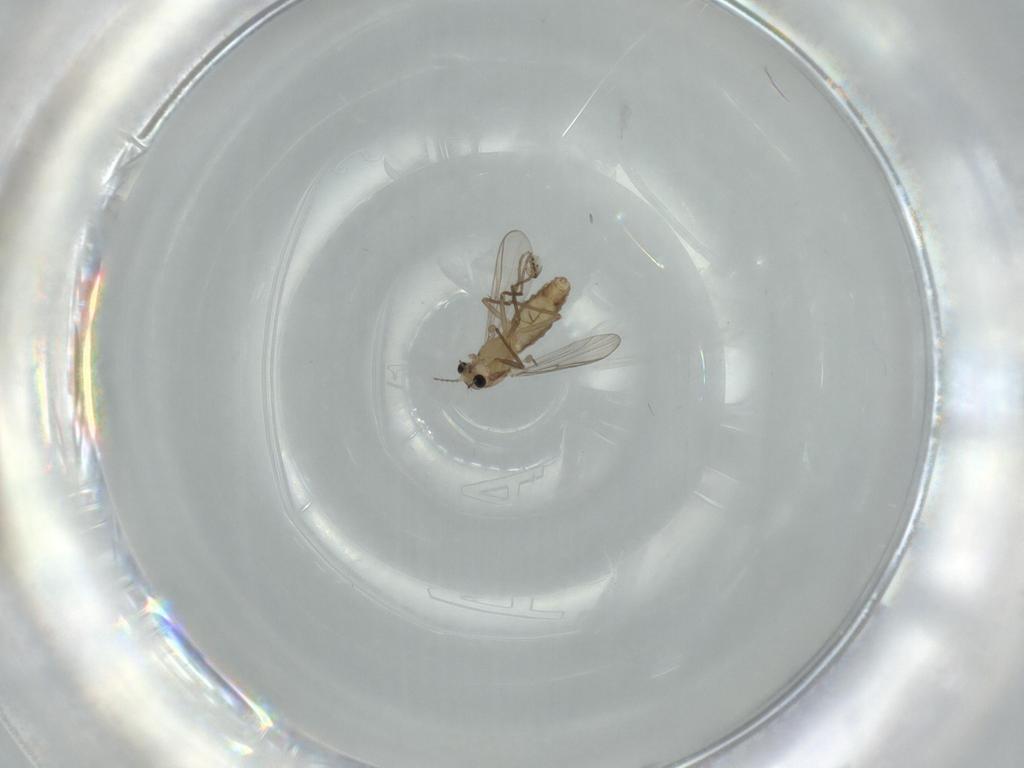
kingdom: Animalia
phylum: Arthropoda
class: Insecta
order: Diptera
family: Chironomidae
